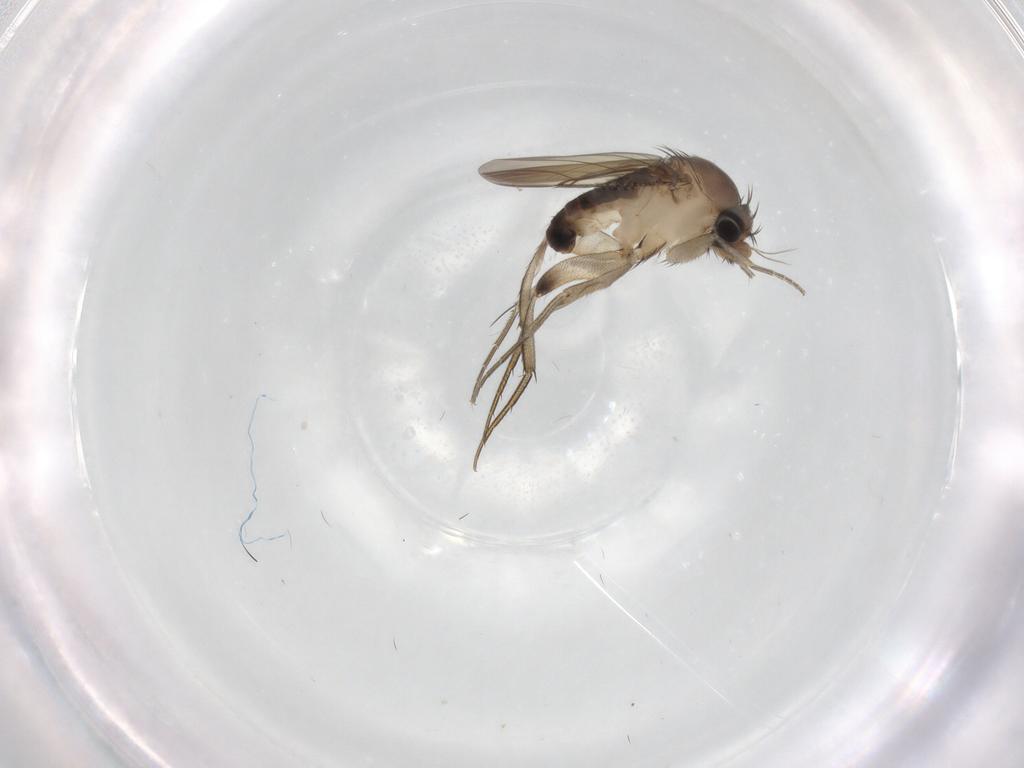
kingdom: Animalia
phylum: Arthropoda
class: Insecta
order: Diptera
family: Phoridae
